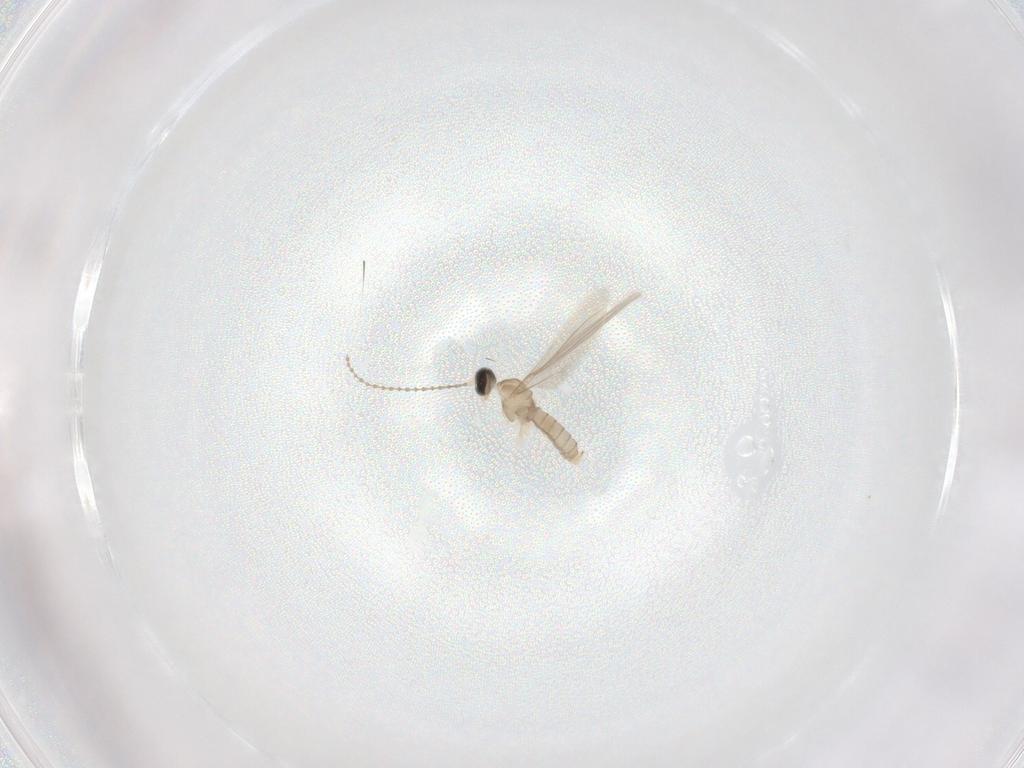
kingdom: Animalia
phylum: Arthropoda
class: Insecta
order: Diptera
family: Cecidomyiidae
